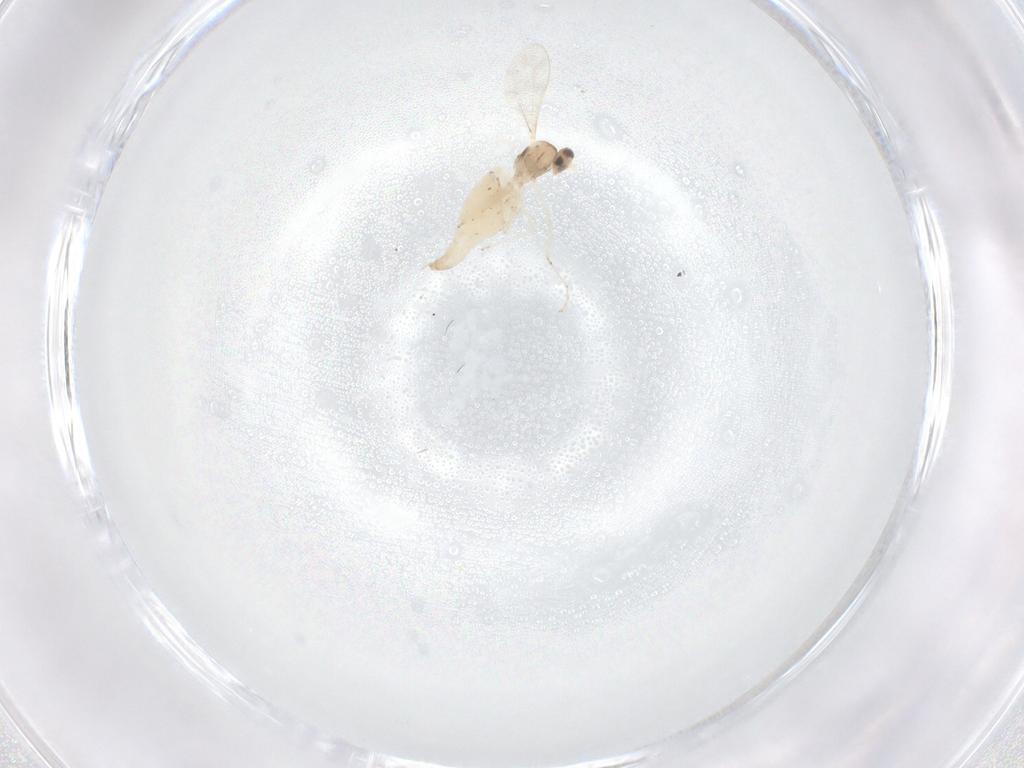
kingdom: Animalia
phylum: Arthropoda
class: Insecta
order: Diptera
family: Cecidomyiidae
